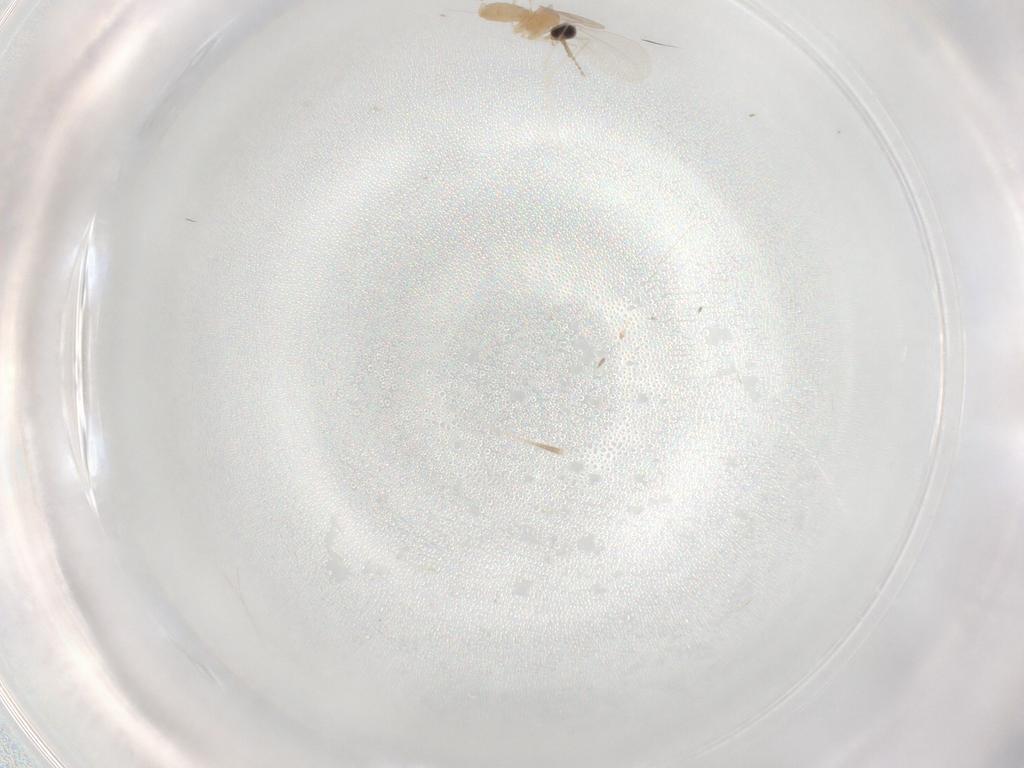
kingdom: Animalia
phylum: Arthropoda
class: Insecta
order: Diptera
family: Cecidomyiidae
